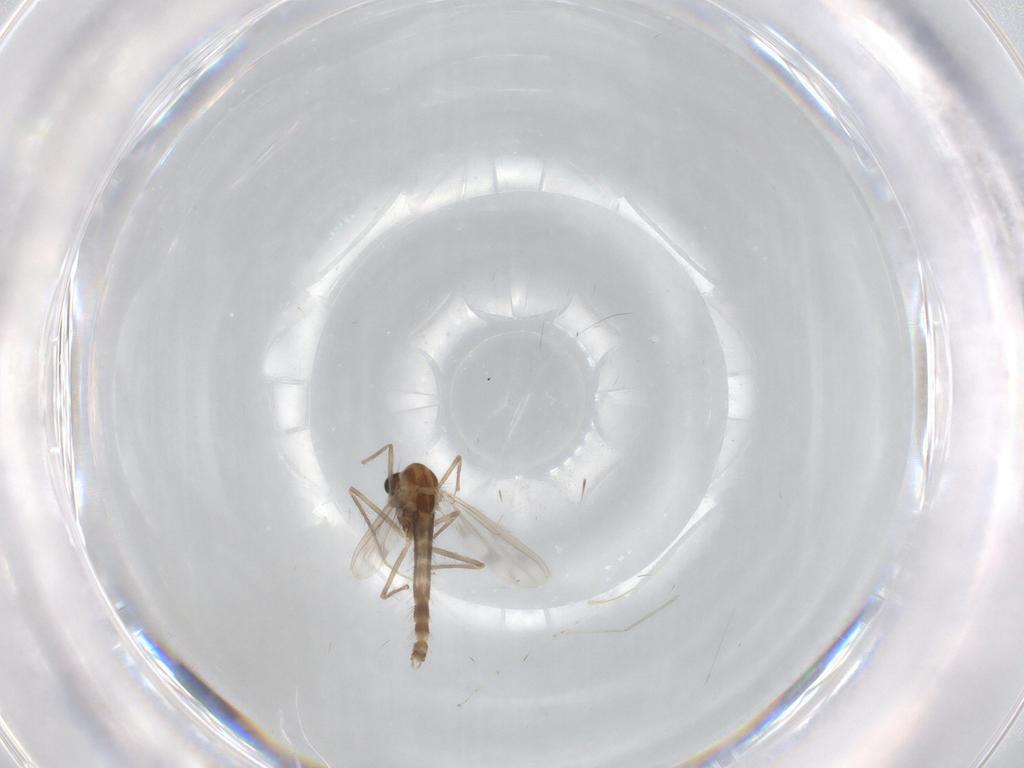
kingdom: Animalia
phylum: Arthropoda
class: Insecta
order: Diptera
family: Chironomidae
